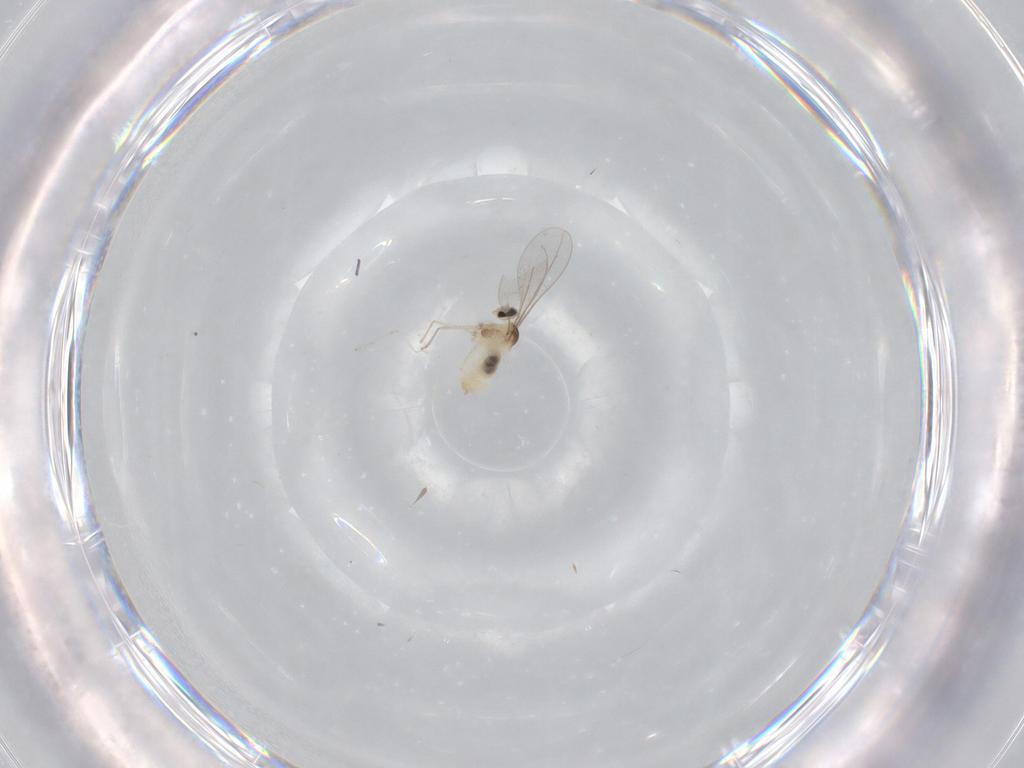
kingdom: Animalia
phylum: Arthropoda
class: Insecta
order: Diptera
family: Cecidomyiidae
